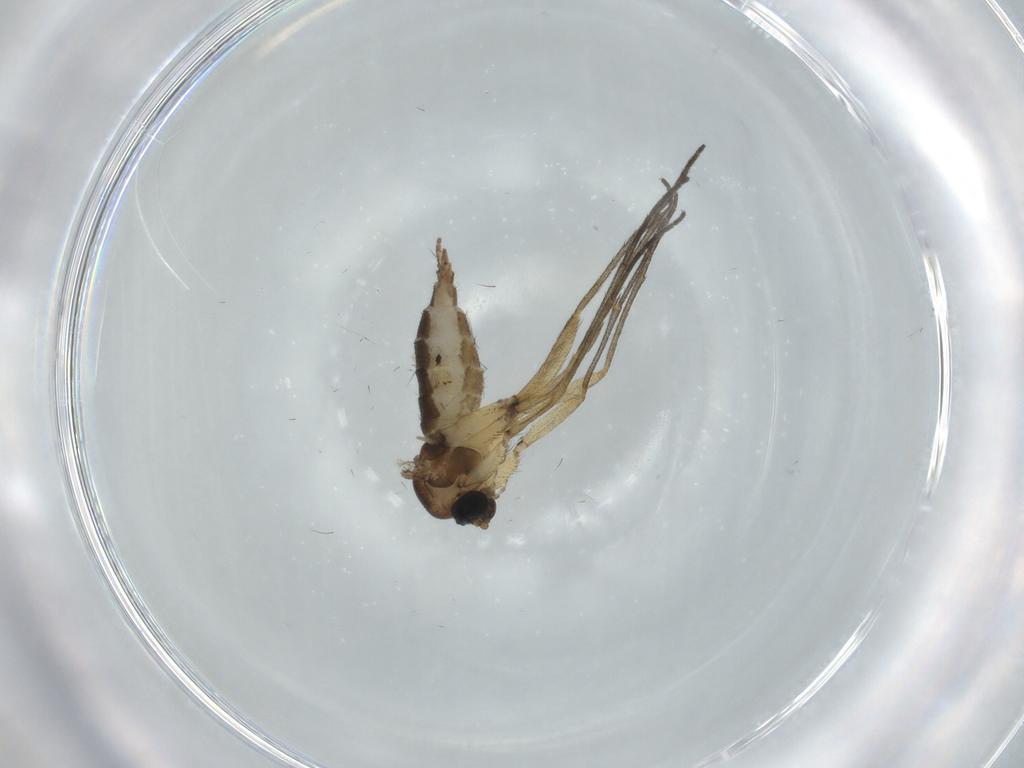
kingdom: Animalia
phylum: Arthropoda
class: Insecta
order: Diptera
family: Sciaridae
